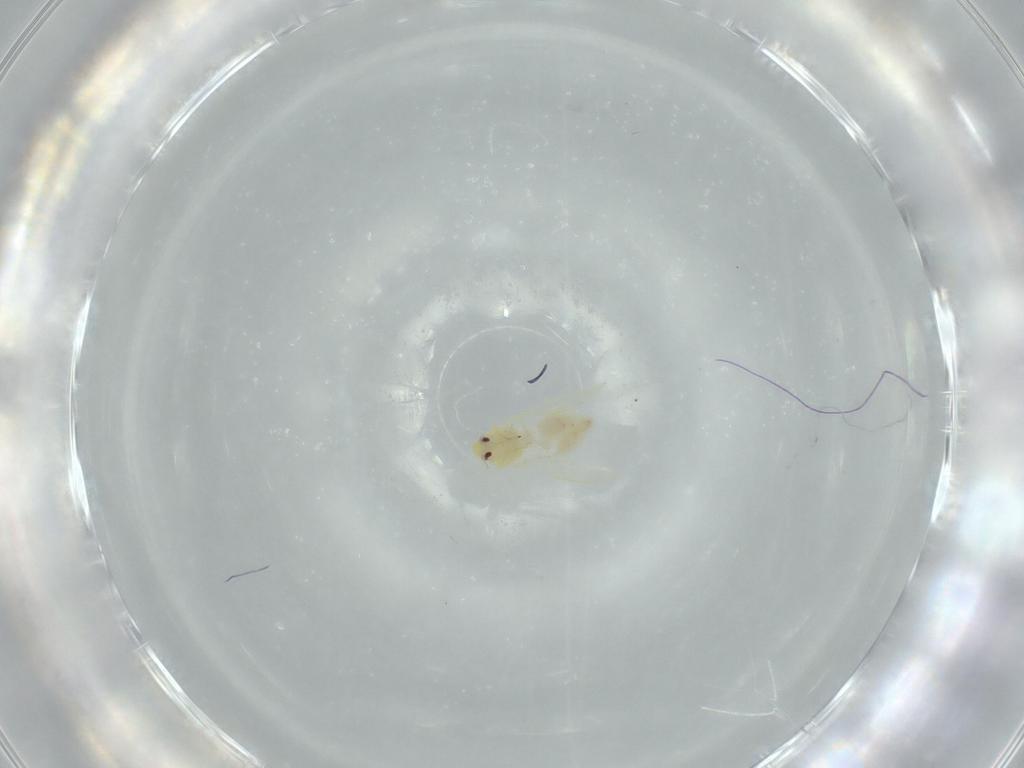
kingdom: Animalia
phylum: Arthropoda
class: Insecta
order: Hemiptera
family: Aleyrodidae
